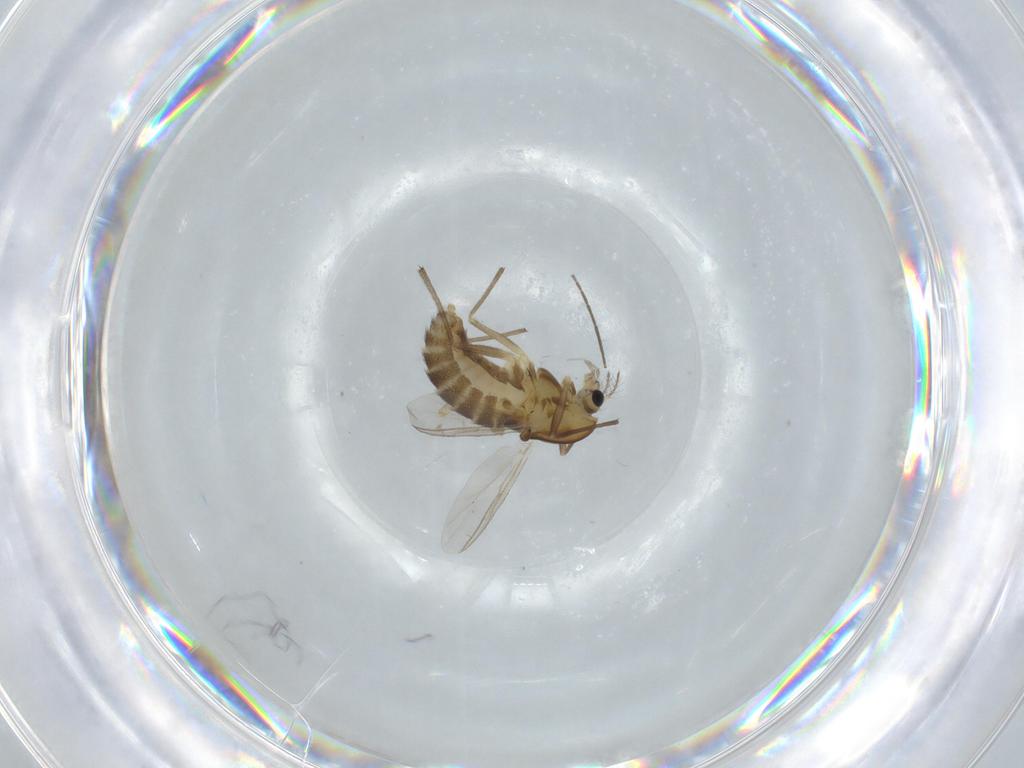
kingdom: Animalia
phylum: Arthropoda
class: Insecta
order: Diptera
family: Chironomidae
